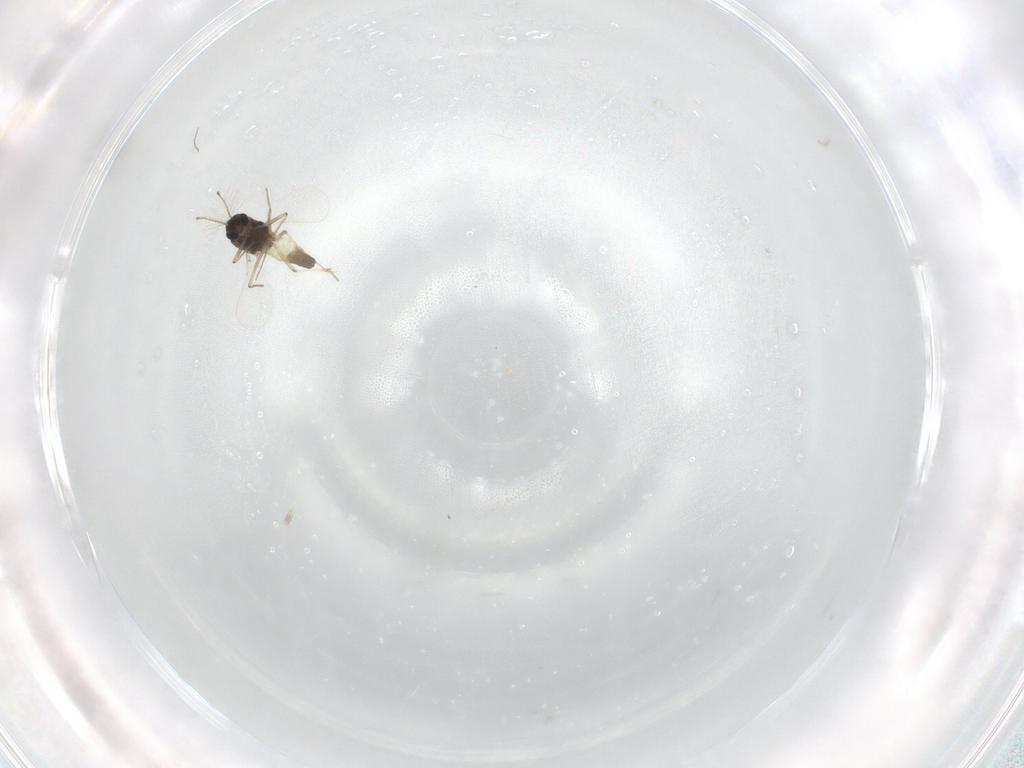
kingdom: Animalia
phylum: Arthropoda
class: Insecta
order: Diptera
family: Chironomidae
